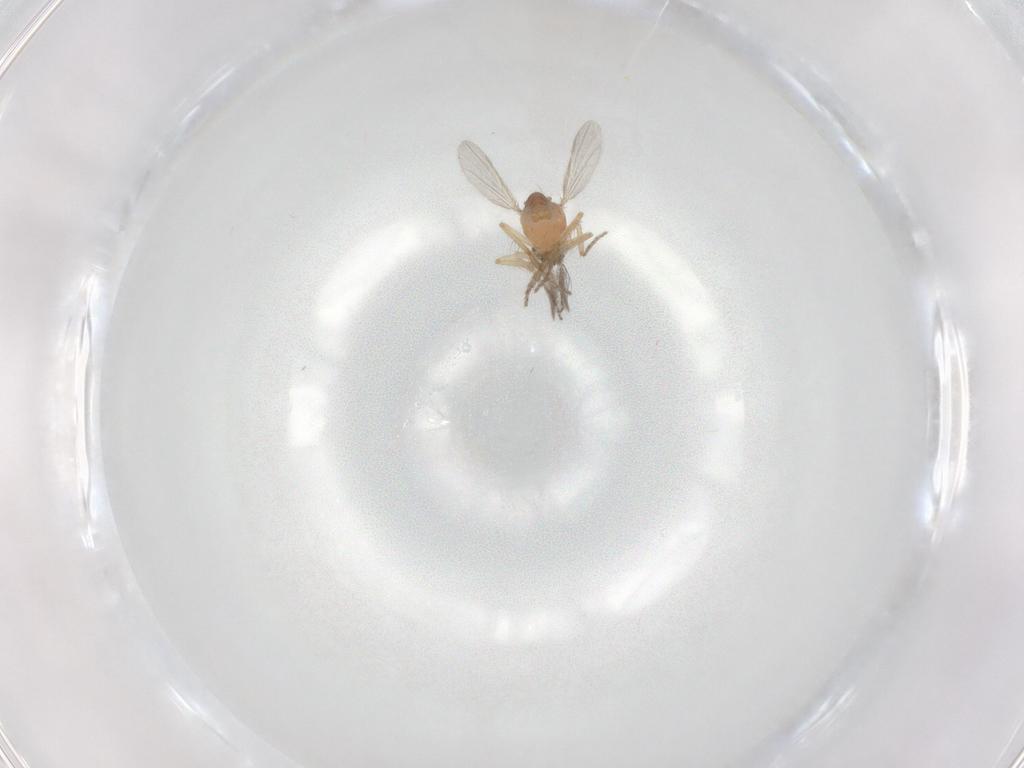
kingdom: Animalia
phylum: Arthropoda
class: Insecta
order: Diptera
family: Ceratopogonidae
